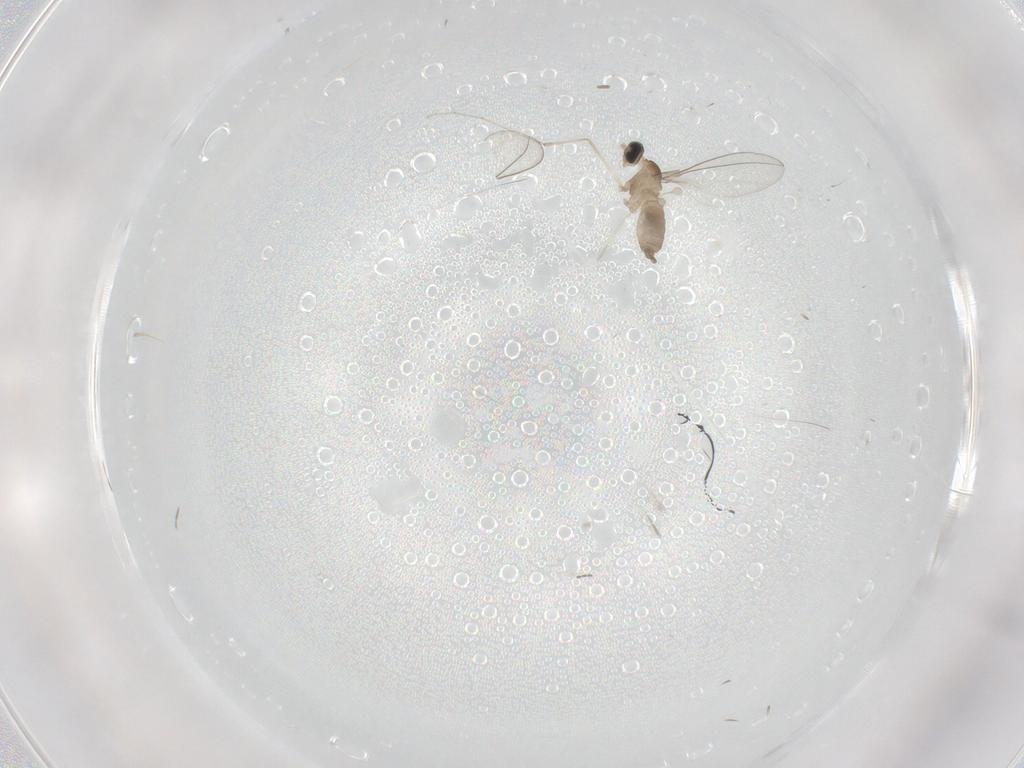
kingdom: Animalia
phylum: Arthropoda
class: Insecta
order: Diptera
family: Cecidomyiidae
